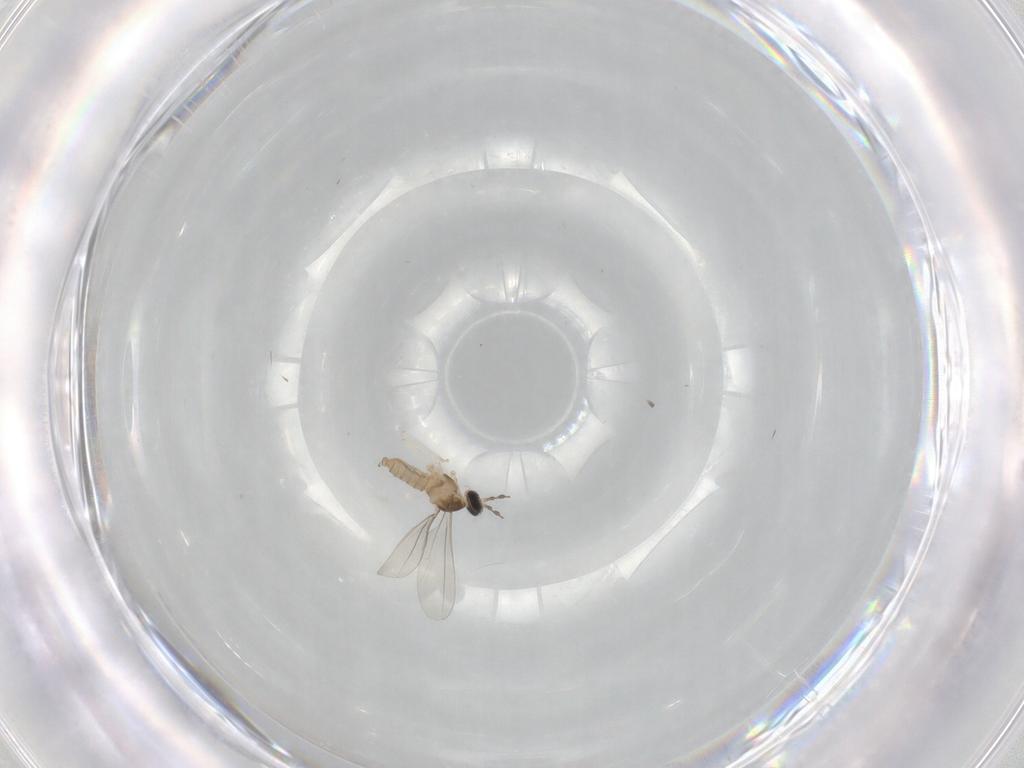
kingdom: Animalia
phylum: Arthropoda
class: Insecta
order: Diptera
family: Cecidomyiidae
